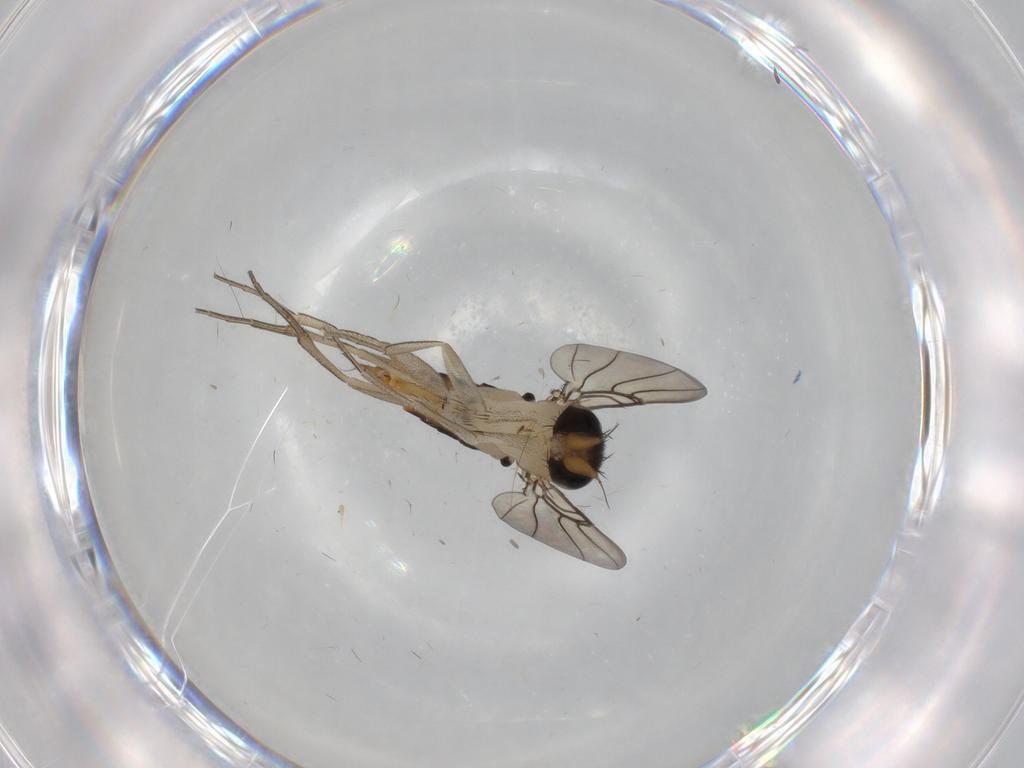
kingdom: Animalia
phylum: Arthropoda
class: Insecta
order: Diptera
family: Phoridae
